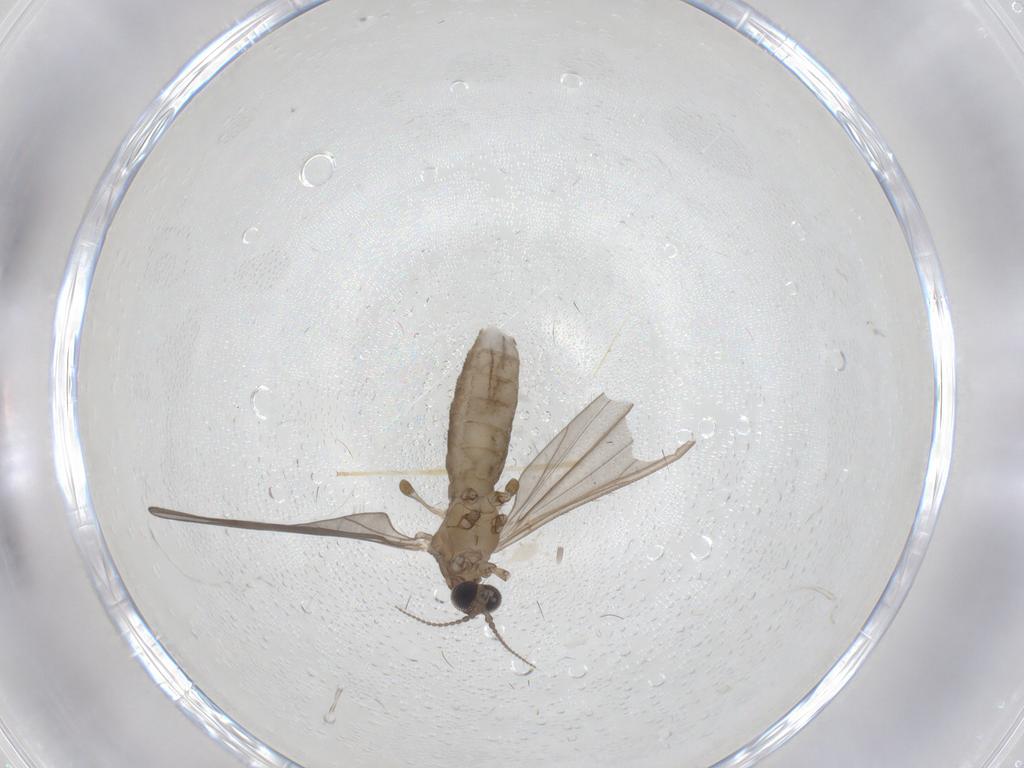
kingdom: Animalia
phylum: Arthropoda
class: Insecta
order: Diptera
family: Limoniidae
